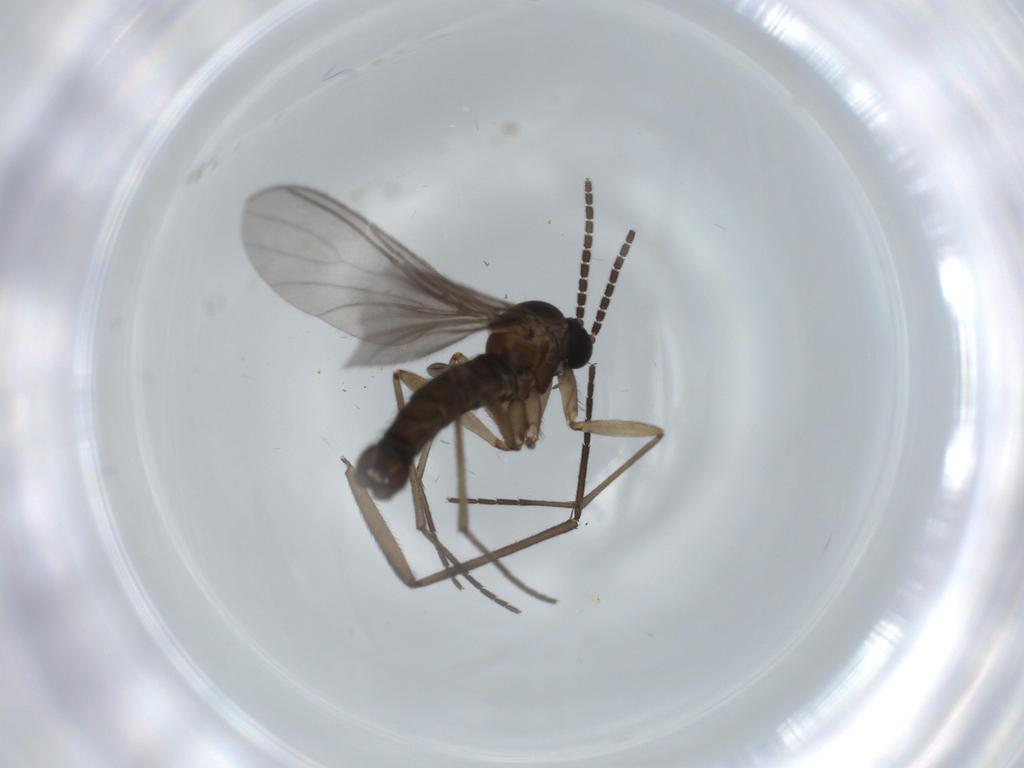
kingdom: Animalia
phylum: Arthropoda
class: Insecta
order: Diptera
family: Sciaridae
